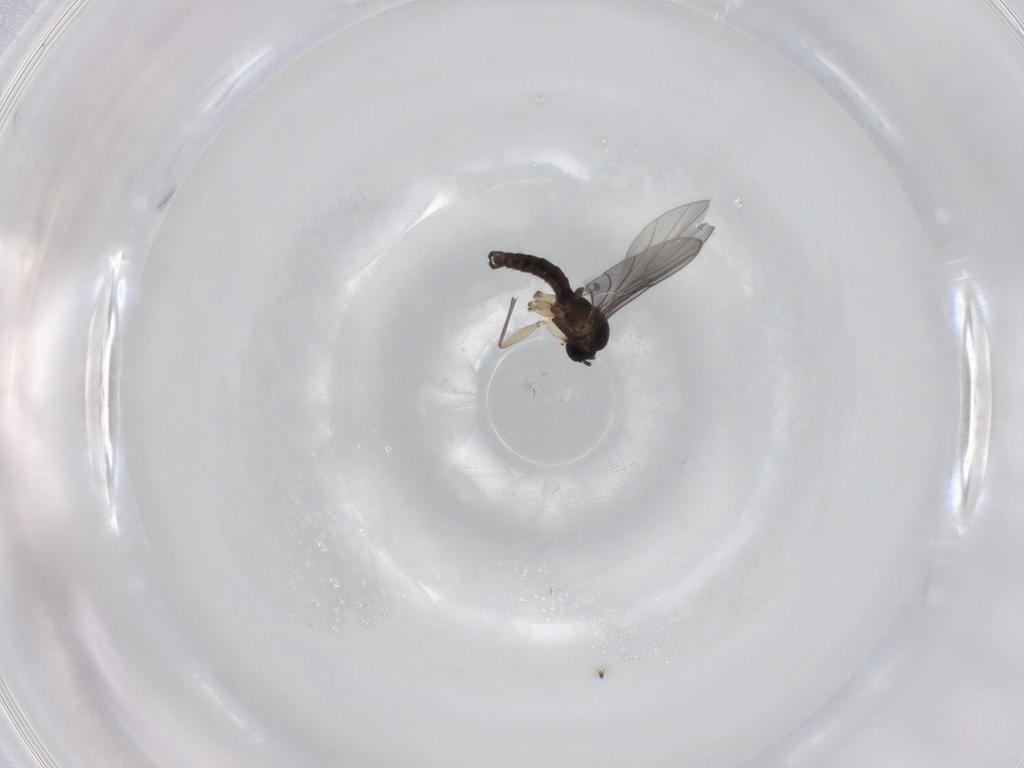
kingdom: Animalia
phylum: Arthropoda
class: Insecta
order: Diptera
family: Sciaridae
